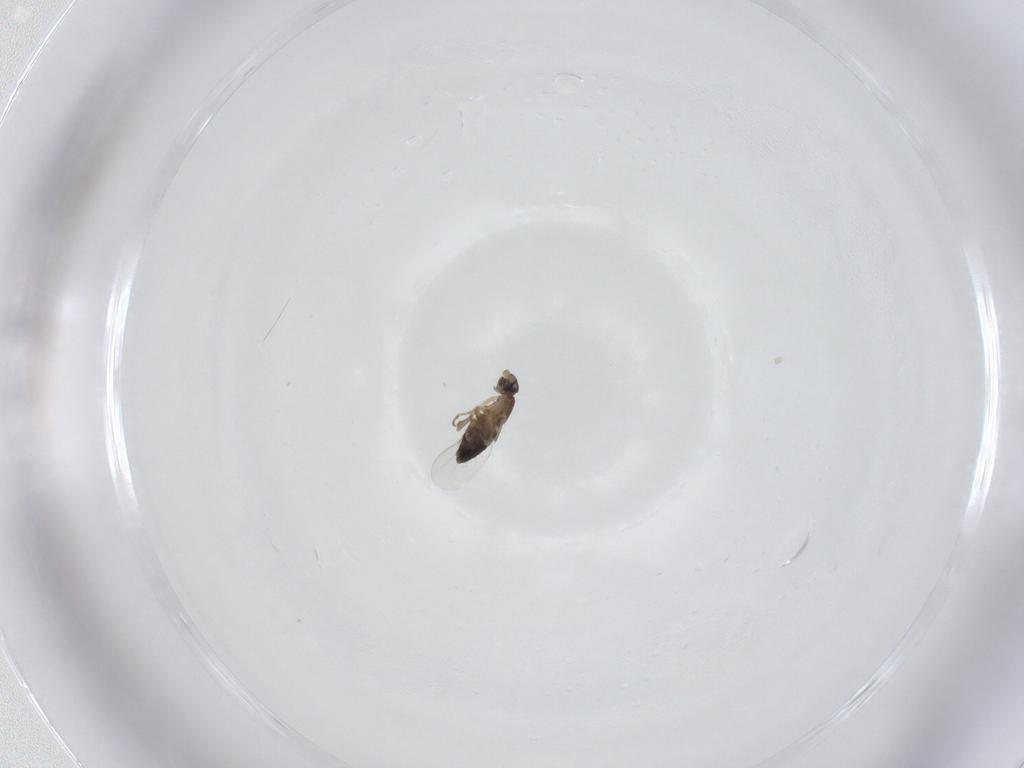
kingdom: Animalia
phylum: Arthropoda
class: Insecta
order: Diptera
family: Phoridae
